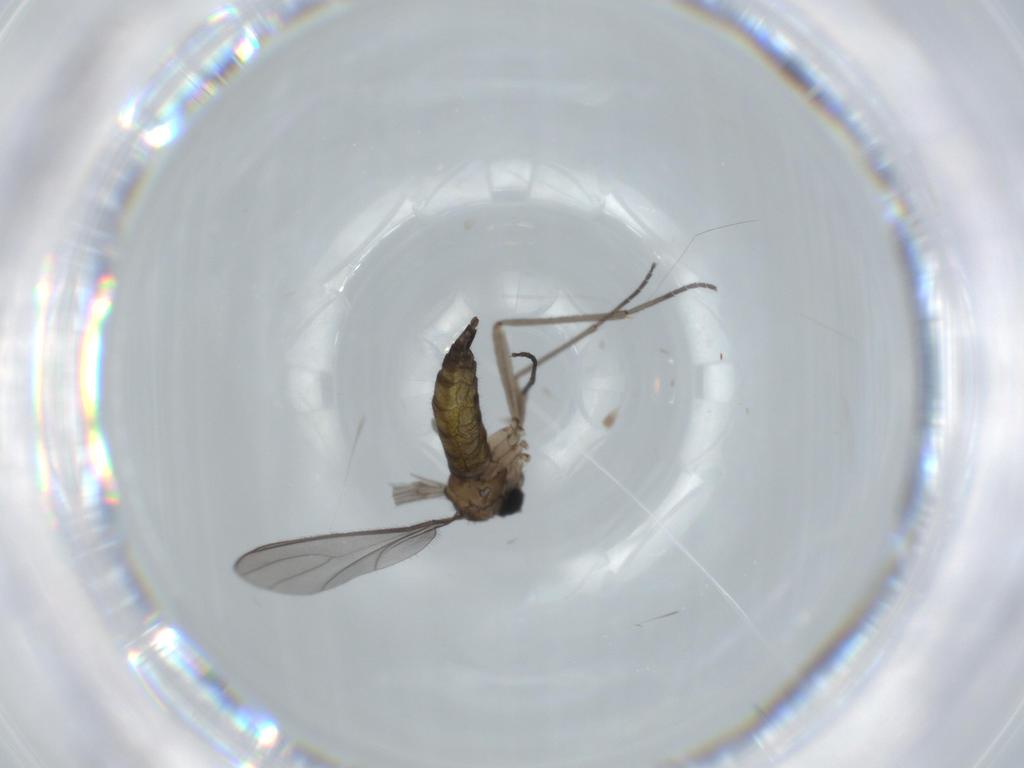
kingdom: Animalia
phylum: Arthropoda
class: Insecta
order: Diptera
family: Sciaridae
